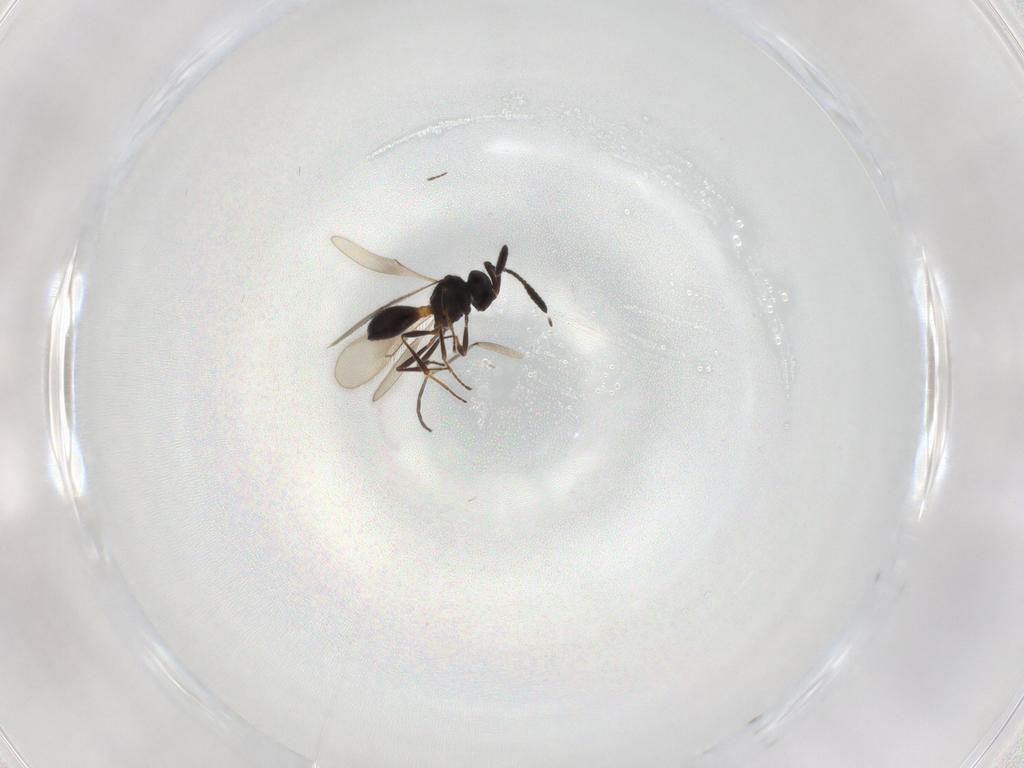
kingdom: Animalia
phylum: Arthropoda
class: Insecta
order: Hymenoptera
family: Scelionidae
